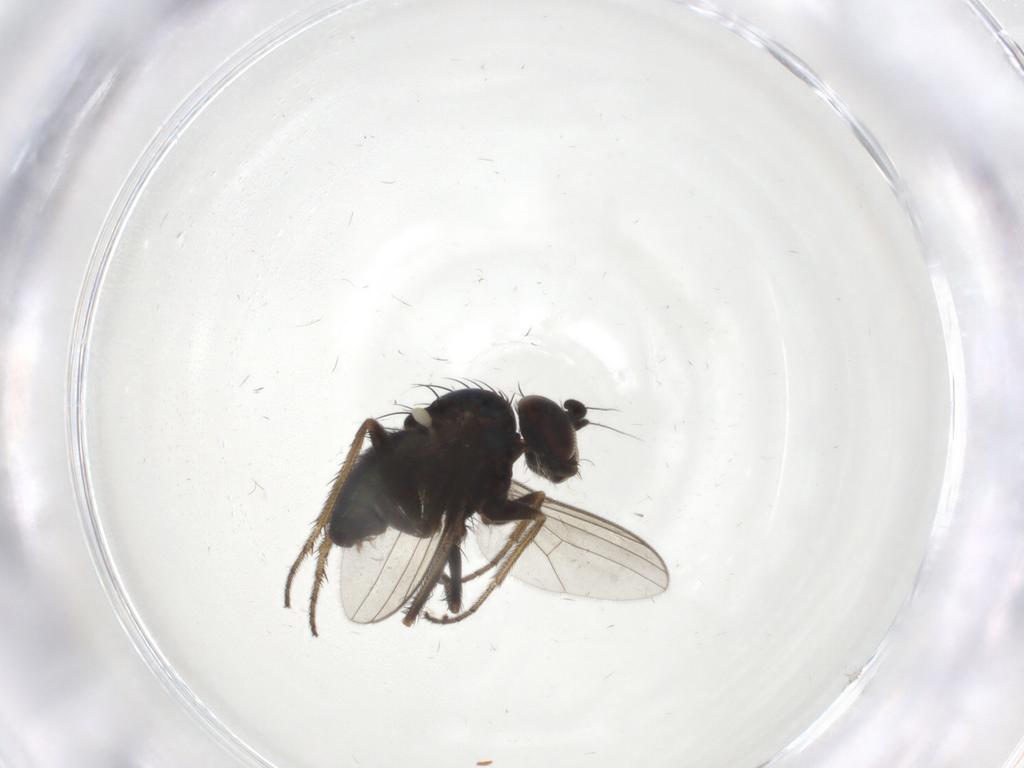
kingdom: Animalia
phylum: Arthropoda
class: Insecta
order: Diptera
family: Dolichopodidae
